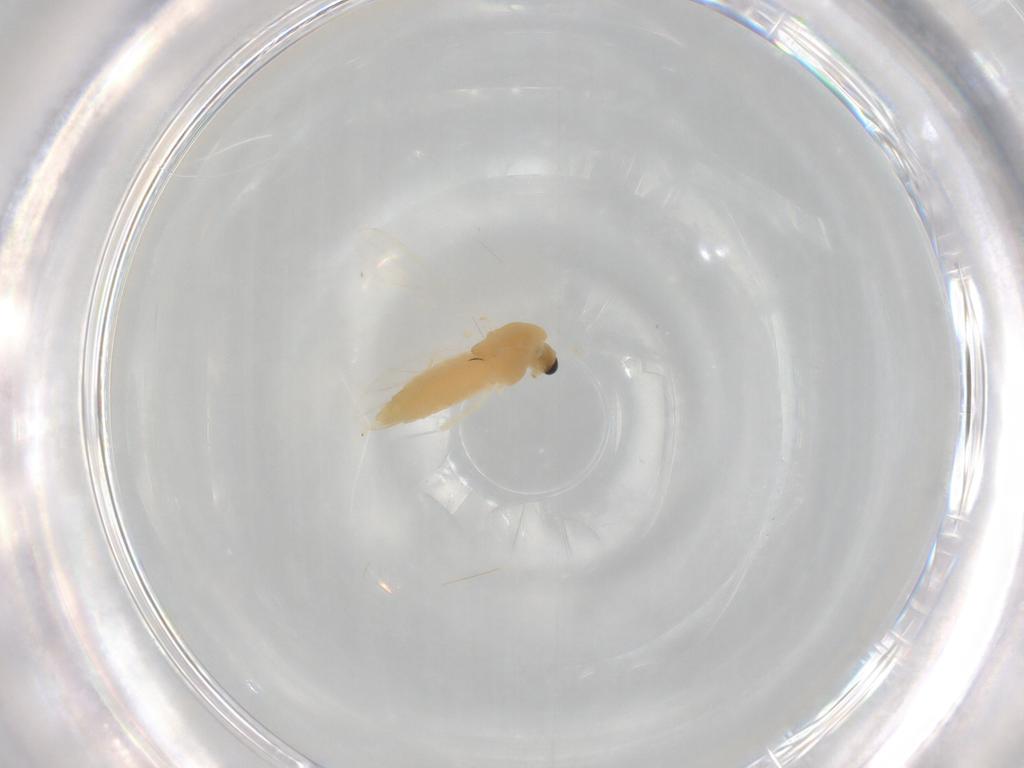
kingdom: Animalia
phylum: Arthropoda
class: Insecta
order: Diptera
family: Chironomidae
